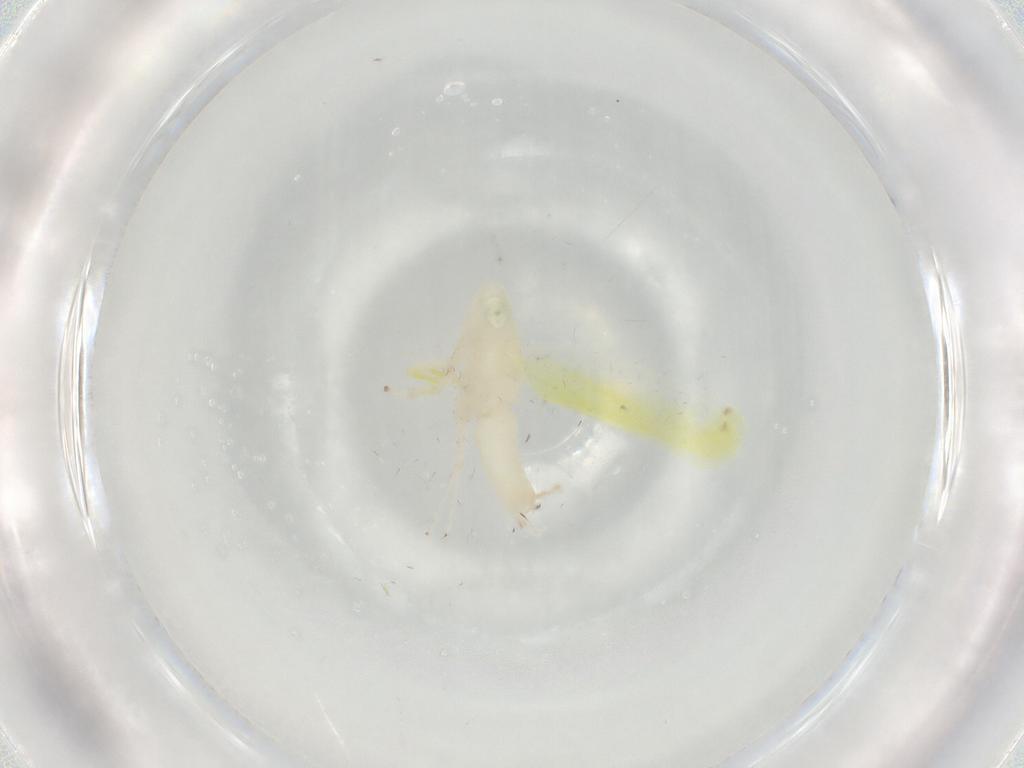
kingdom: Animalia
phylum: Arthropoda
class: Insecta
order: Hemiptera
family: Cicadellidae
